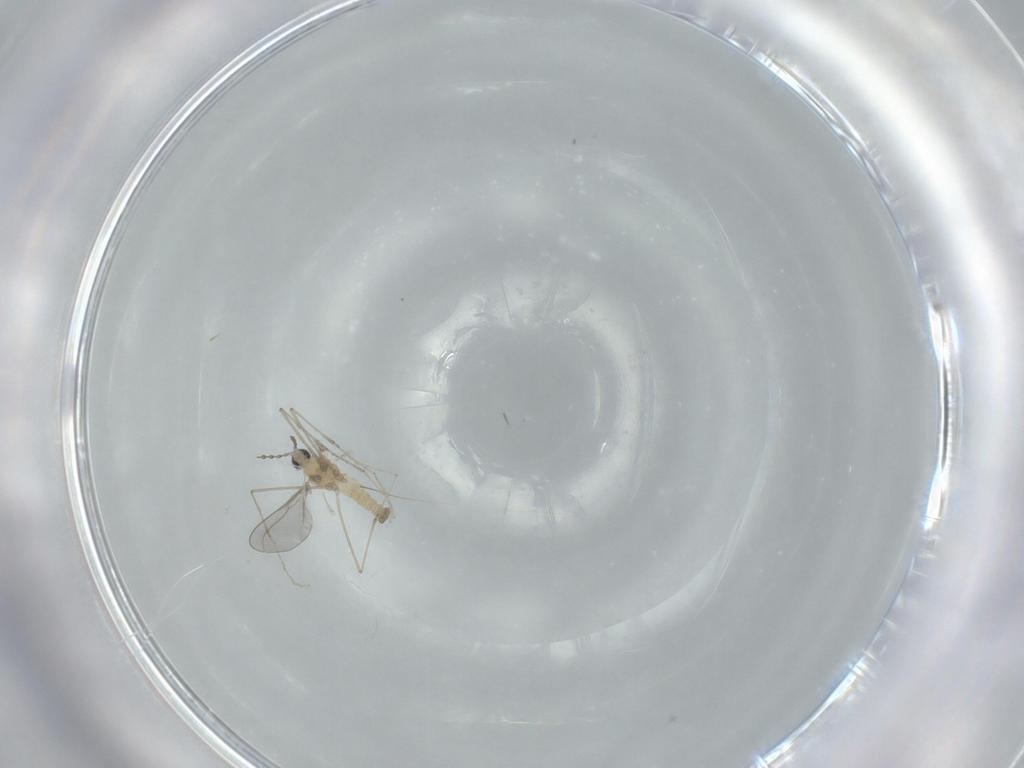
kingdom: Animalia
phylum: Arthropoda
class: Insecta
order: Diptera
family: Cecidomyiidae
